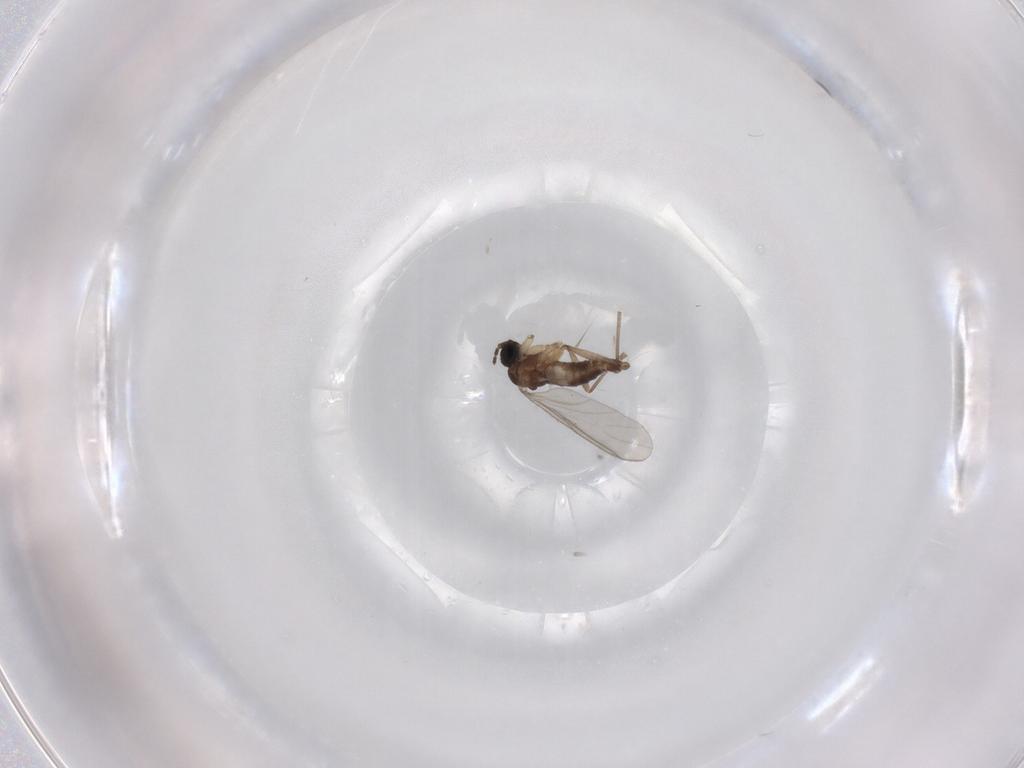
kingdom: Animalia
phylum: Arthropoda
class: Insecta
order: Diptera
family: Sciaridae
